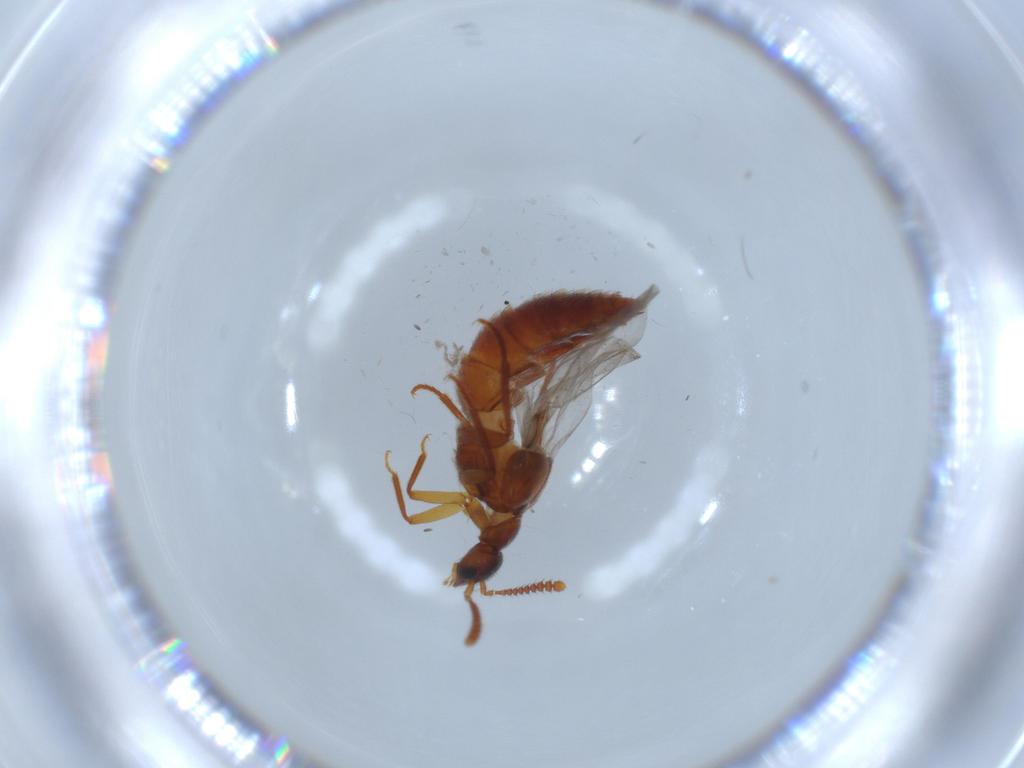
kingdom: Animalia
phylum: Arthropoda
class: Insecta
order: Coleoptera
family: Staphylinidae
